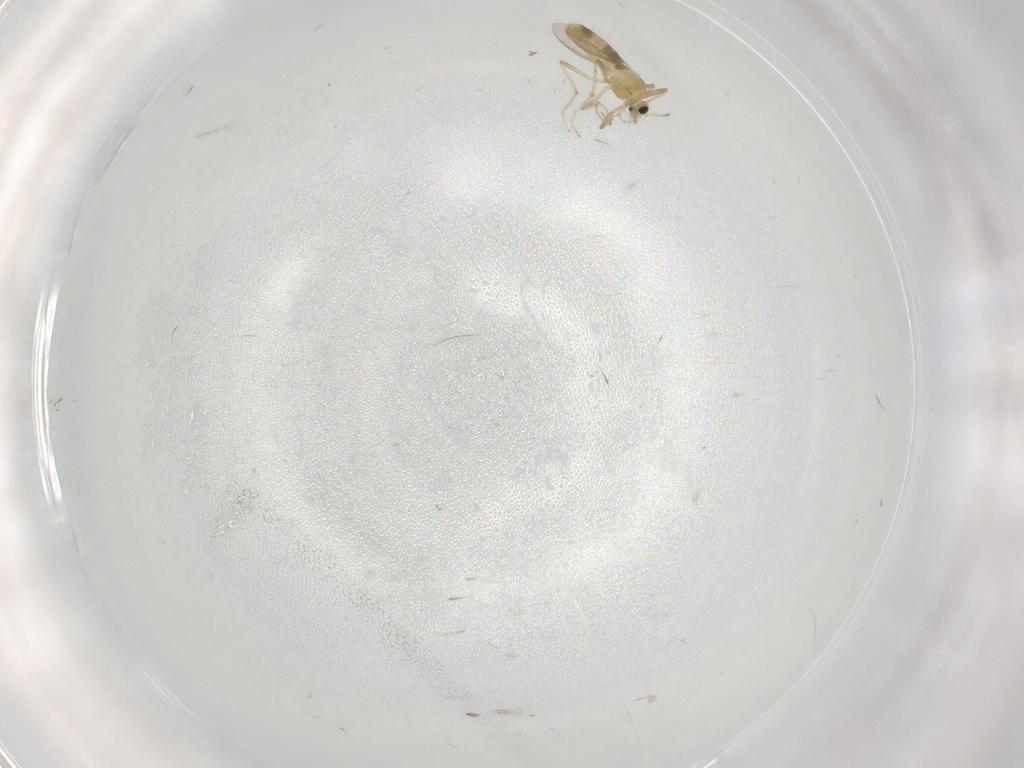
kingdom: Animalia
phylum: Arthropoda
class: Insecta
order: Diptera
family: Chironomidae
